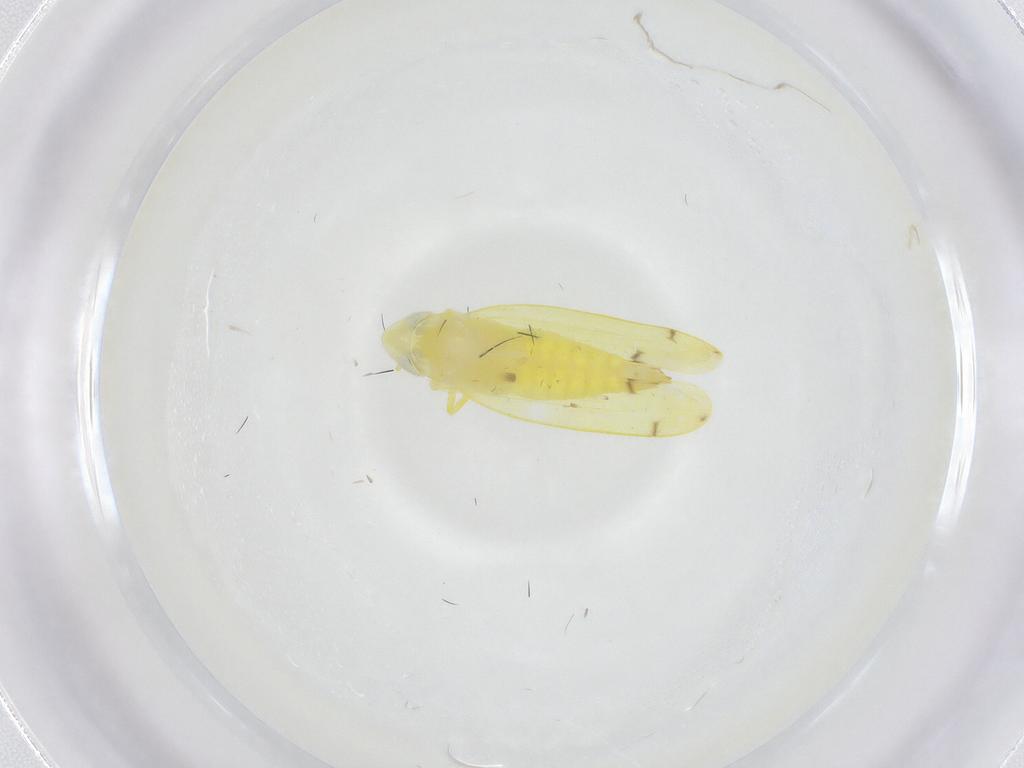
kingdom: Animalia
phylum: Arthropoda
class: Insecta
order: Hemiptera
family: Cicadellidae
